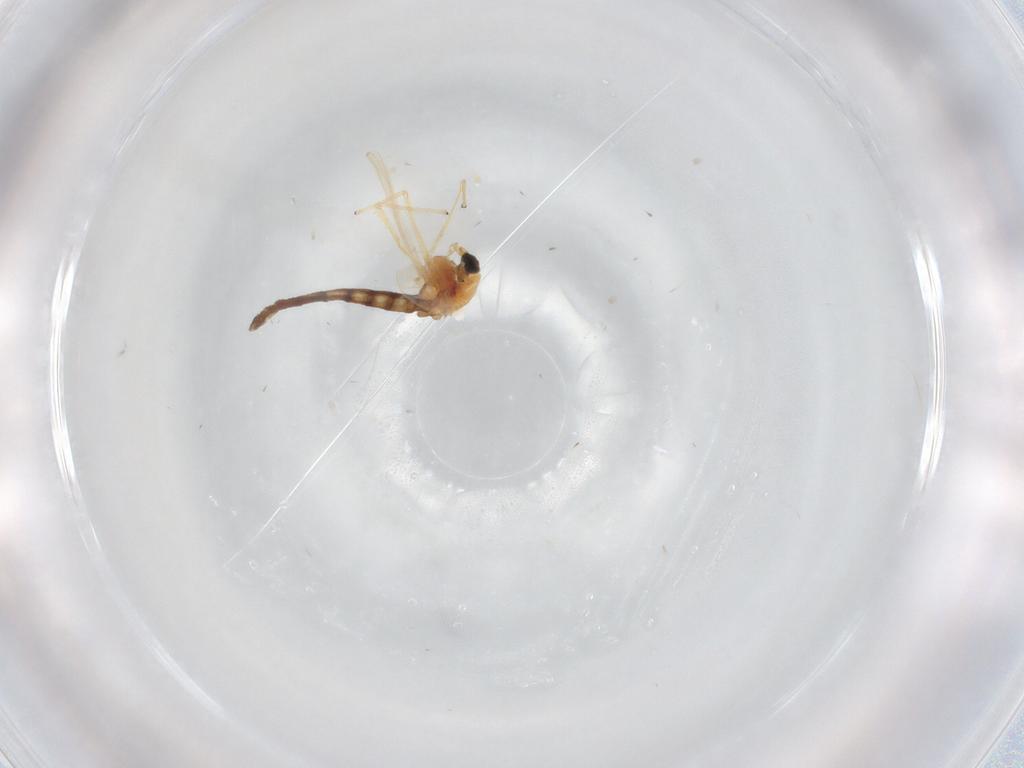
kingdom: Animalia
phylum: Arthropoda
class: Insecta
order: Diptera
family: Chironomidae
